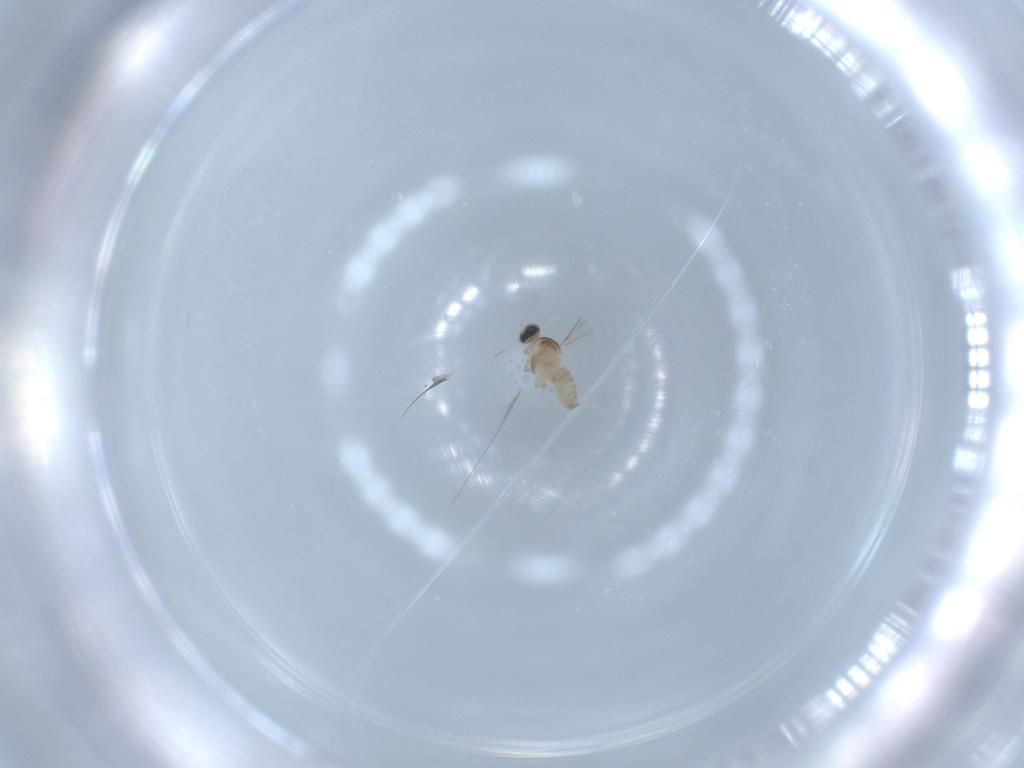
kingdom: Animalia
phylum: Arthropoda
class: Insecta
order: Diptera
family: Cecidomyiidae
